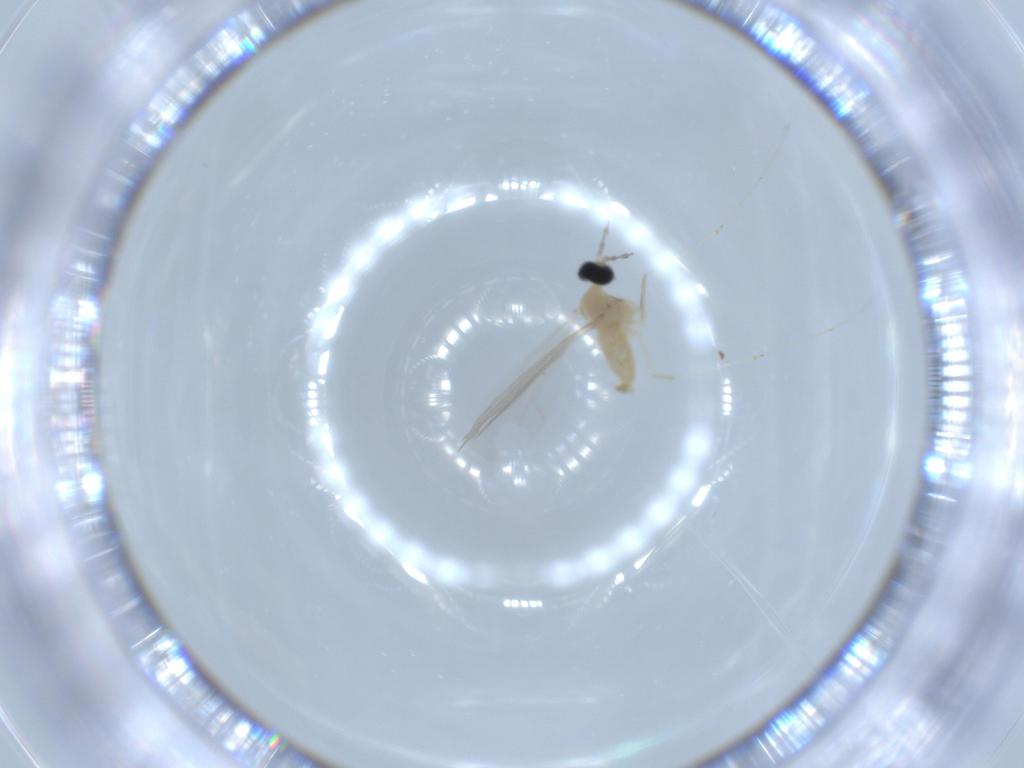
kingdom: Animalia
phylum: Arthropoda
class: Insecta
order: Diptera
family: Cecidomyiidae
